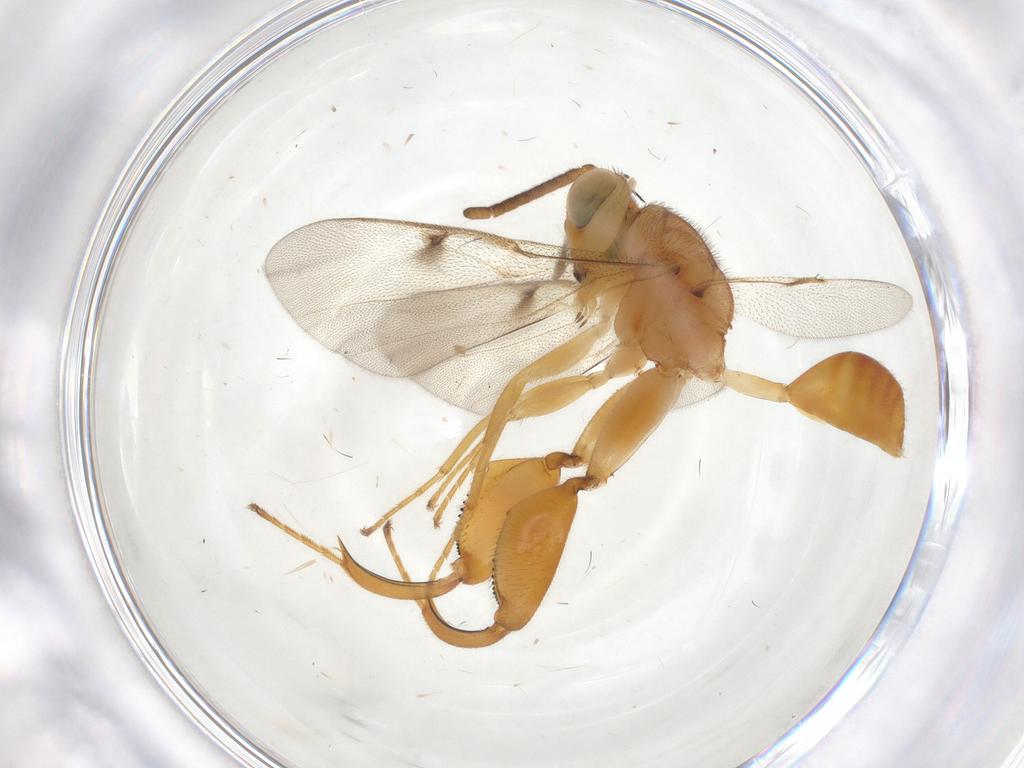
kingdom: Animalia
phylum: Arthropoda
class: Insecta
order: Hymenoptera
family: Chalcididae
